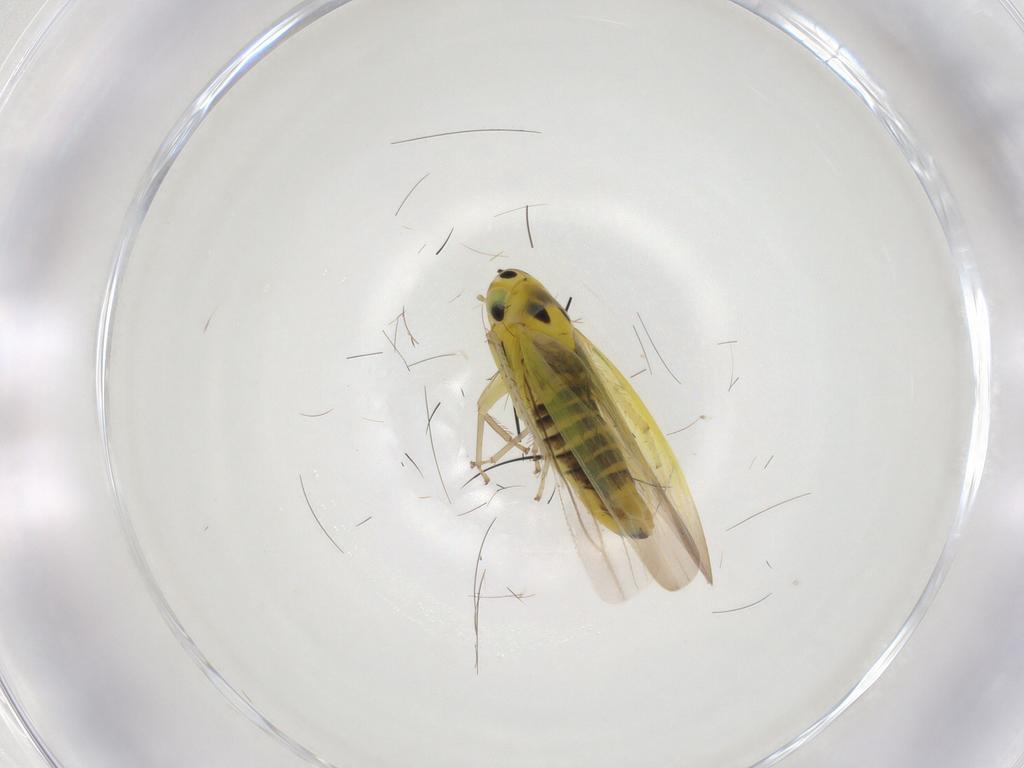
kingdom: Animalia
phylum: Arthropoda
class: Insecta
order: Hemiptera
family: Cicadellidae
